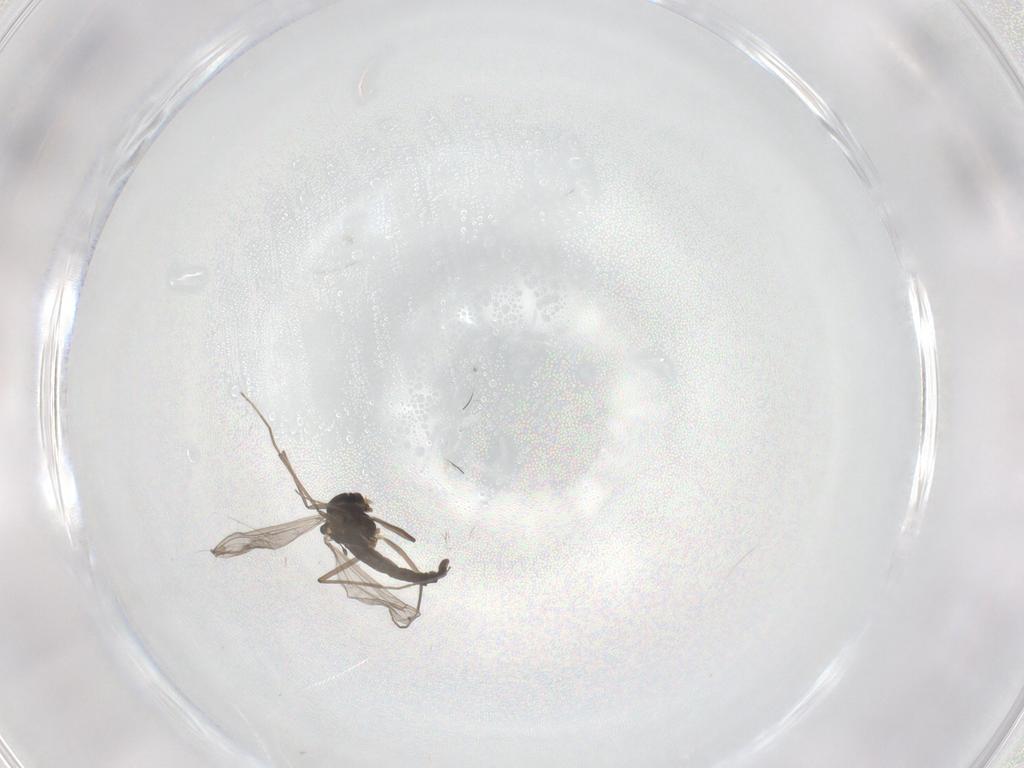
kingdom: Animalia
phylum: Arthropoda
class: Insecta
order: Diptera
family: Chironomidae
